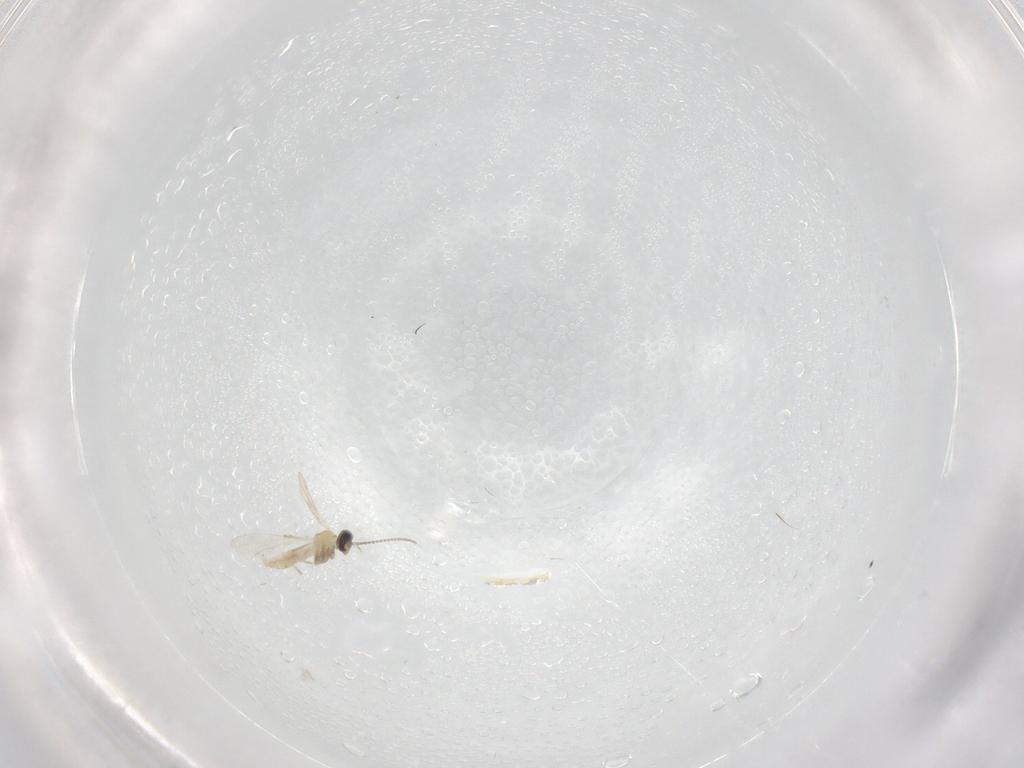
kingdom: Animalia
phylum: Arthropoda
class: Insecta
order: Diptera
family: Cecidomyiidae
